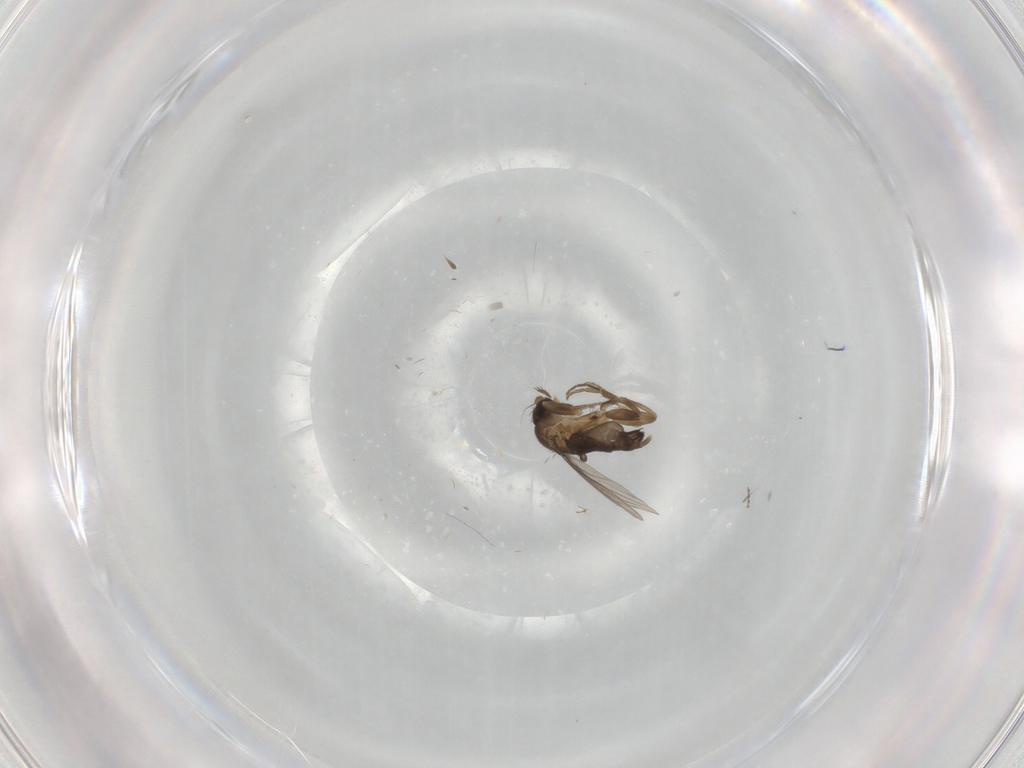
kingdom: Animalia
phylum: Arthropoda
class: Insecta
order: Diptera
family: Phoridae
